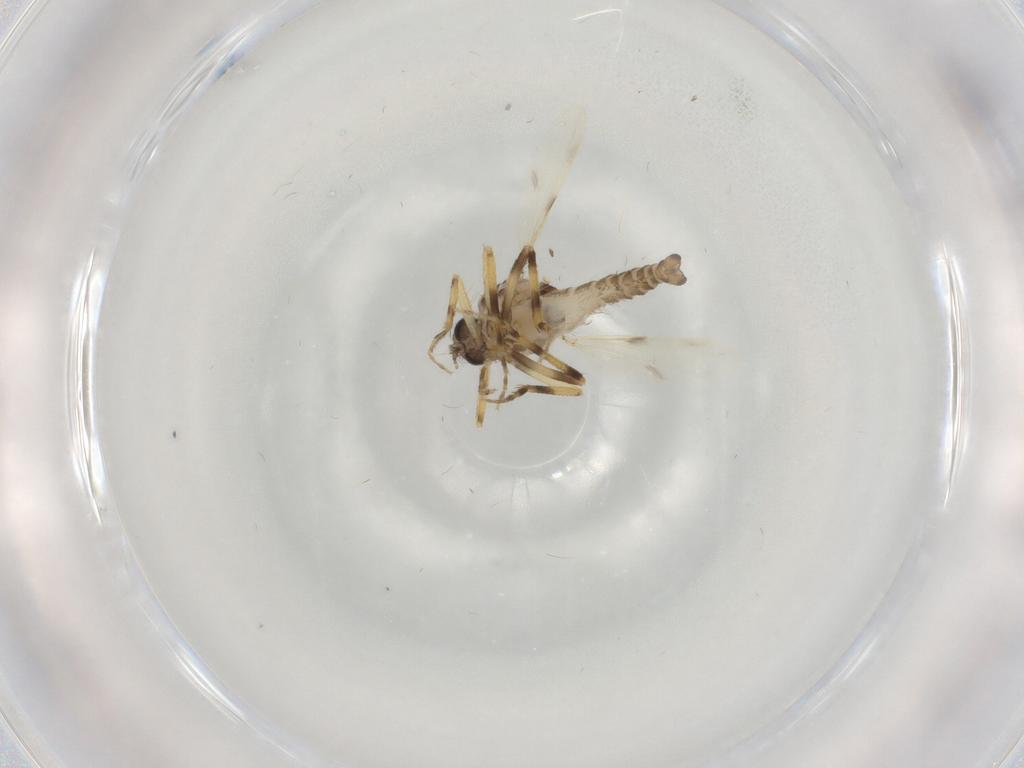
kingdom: Animalia
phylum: Arthropoda
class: Insecta
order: Diptera
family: Ceratopogonidae
